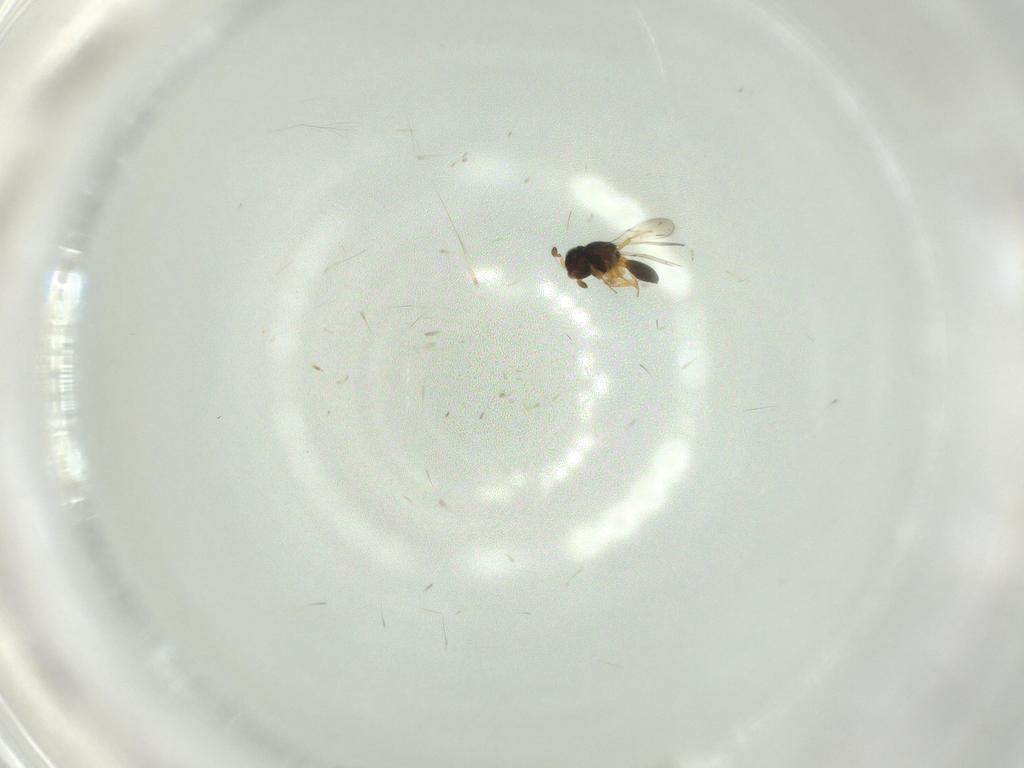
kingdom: Animalia
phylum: Arthropoda
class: Insecta
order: Hymenoptera
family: Scelionidae
